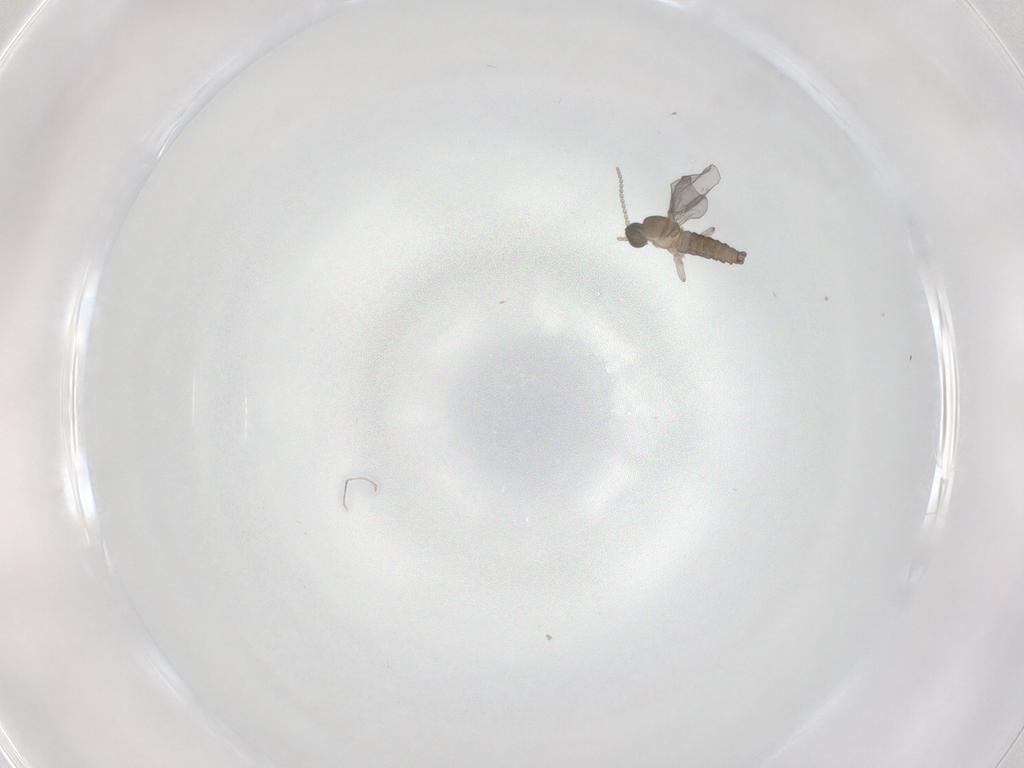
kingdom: Animalia
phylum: Arthropoda
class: Insecta
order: Diptera
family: Cecidomyiidae
